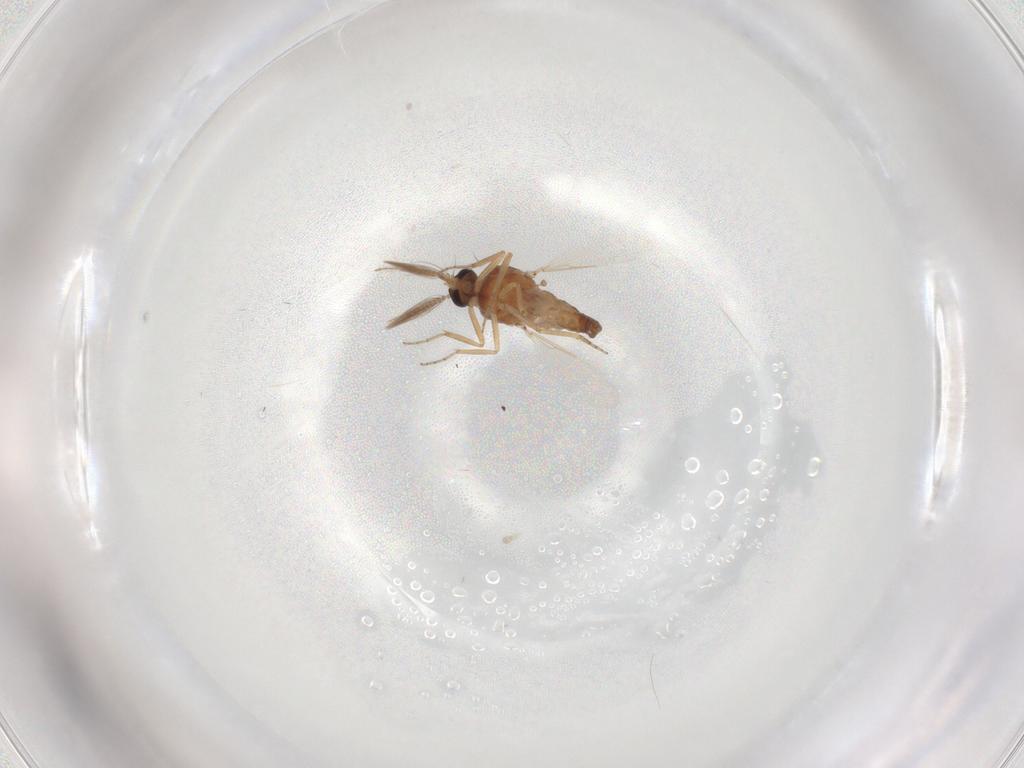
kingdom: Animalia
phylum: Arthropoda
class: Insecta
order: Diptera
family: Ceratopogonidae
